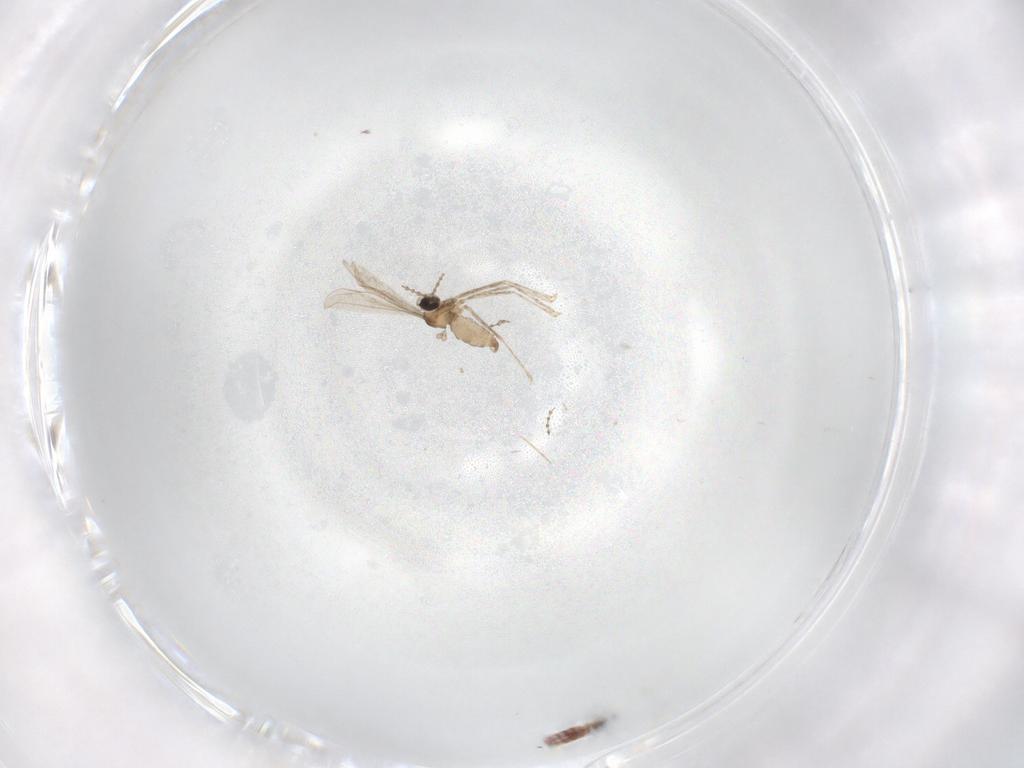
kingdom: Animalia
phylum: Arthropoda
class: Insecta
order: Diptera
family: Cecidomyiidae
